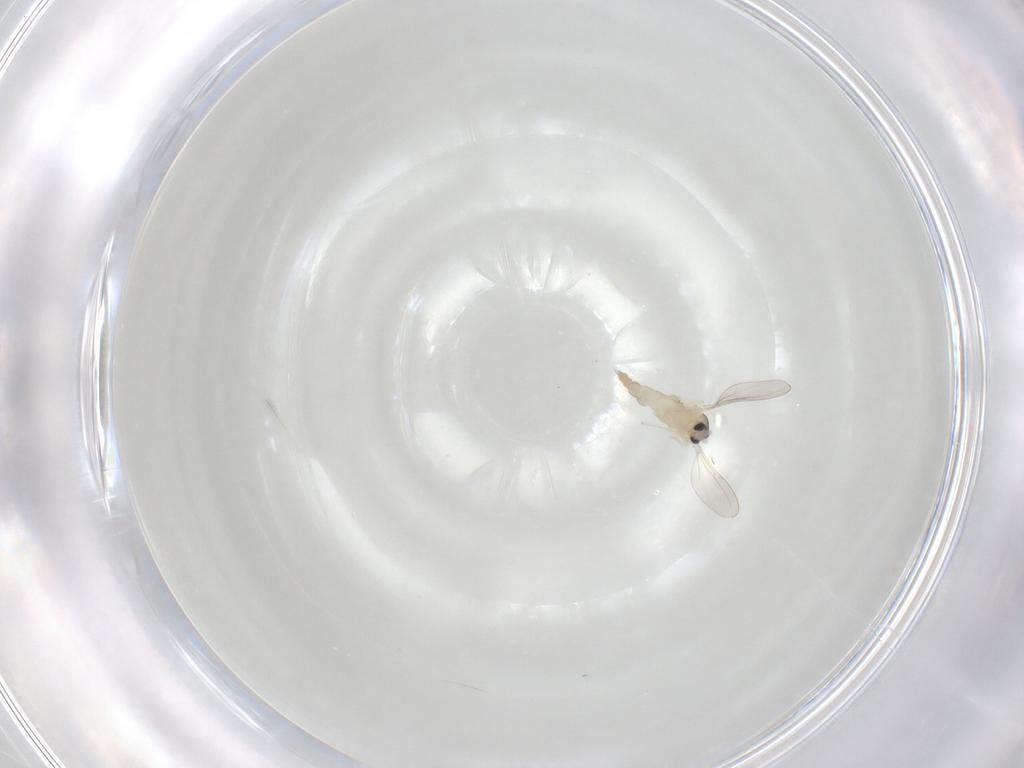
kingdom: Animalia
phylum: Arthropoda
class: Insecta
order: Diptera
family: Cecidomyiidae
